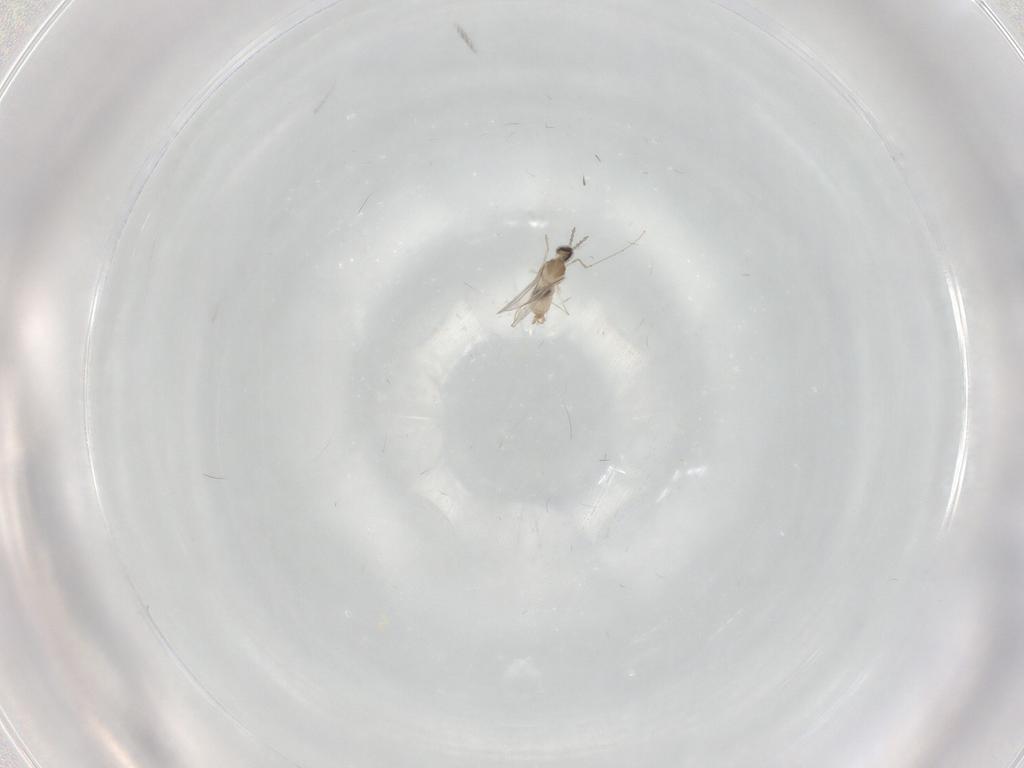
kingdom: Animalia
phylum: Arthropoda
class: Insecta
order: Diptera
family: Cecidomyiidae
